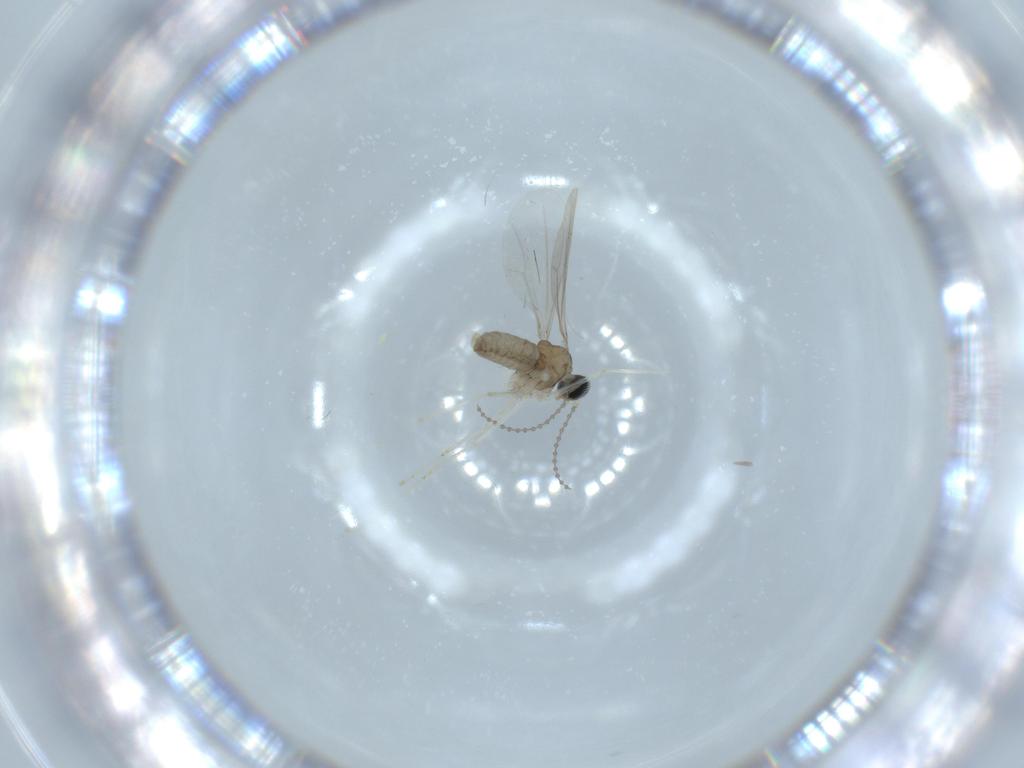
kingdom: Animalia
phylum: Arthropoda
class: Insecta
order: Diptera
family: Cecidomyiidae
